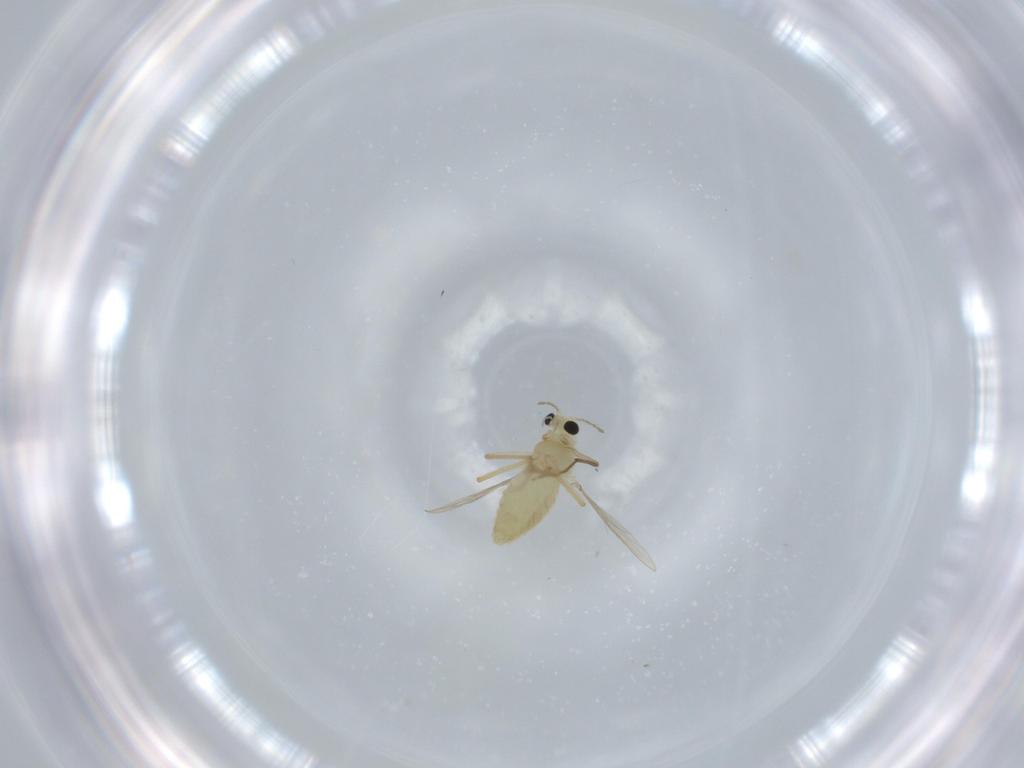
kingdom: Animalia
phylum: Arthropoda
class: Insecta
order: Diptera
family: Chironomidae
